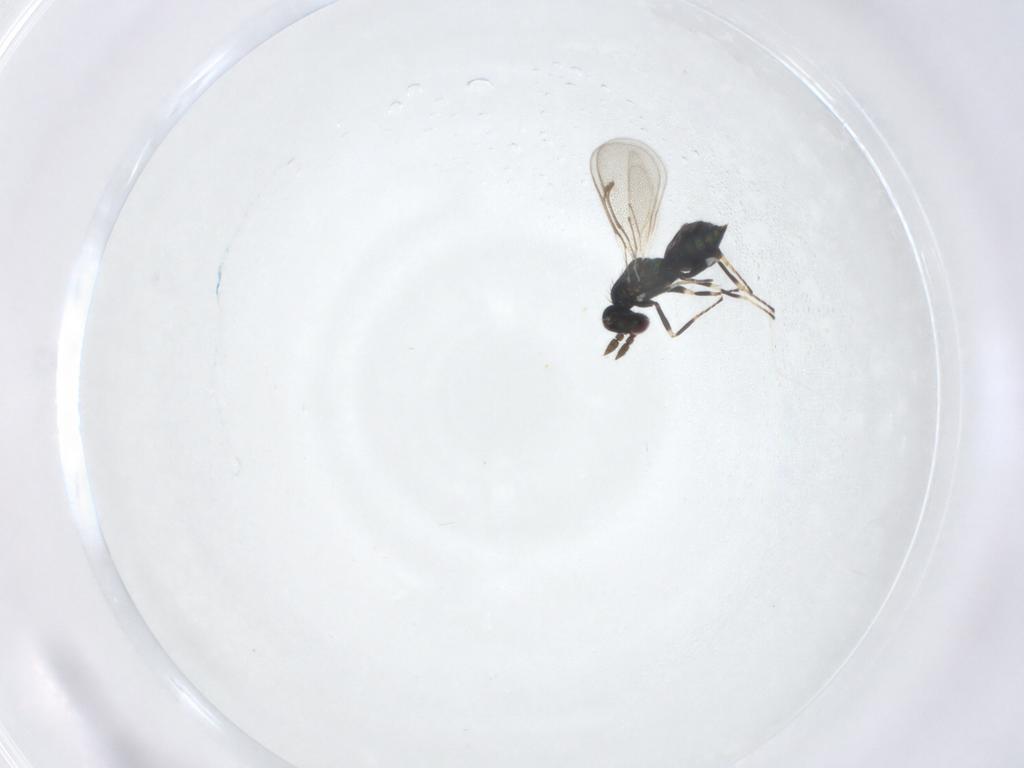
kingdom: Animalia
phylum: Arthropoda
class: Insecta
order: Hymenoptera
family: Eulophidae
